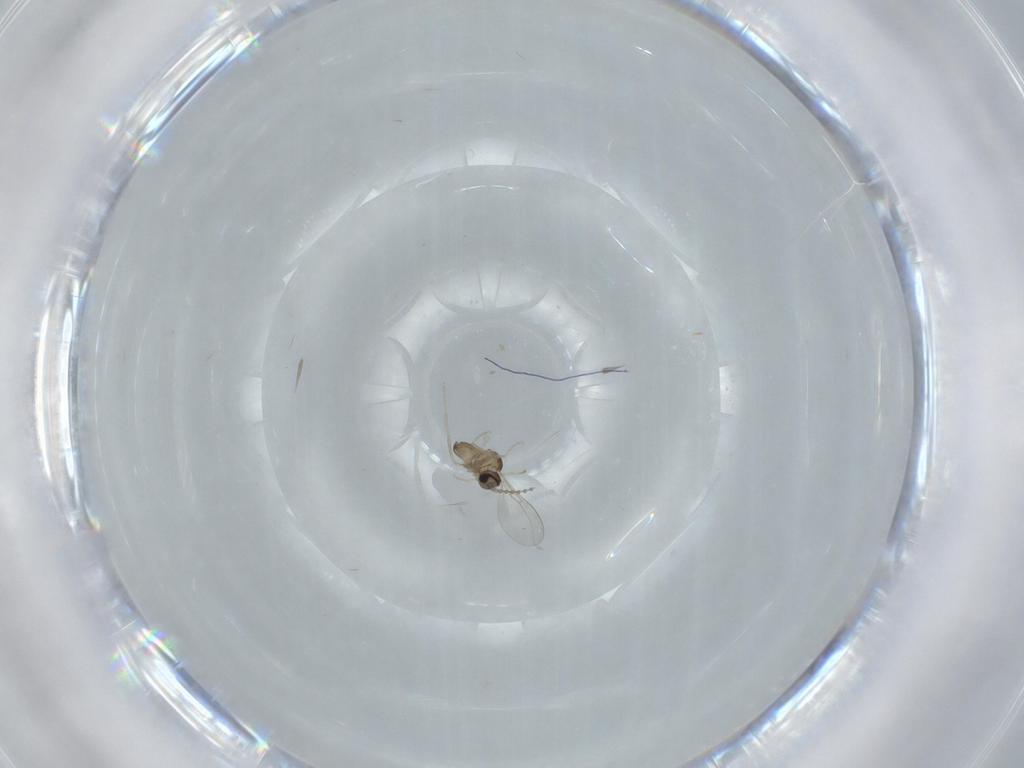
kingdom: Animalia
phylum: Arthropoda
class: Insecta
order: Diptera
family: Cecidomyiidae
